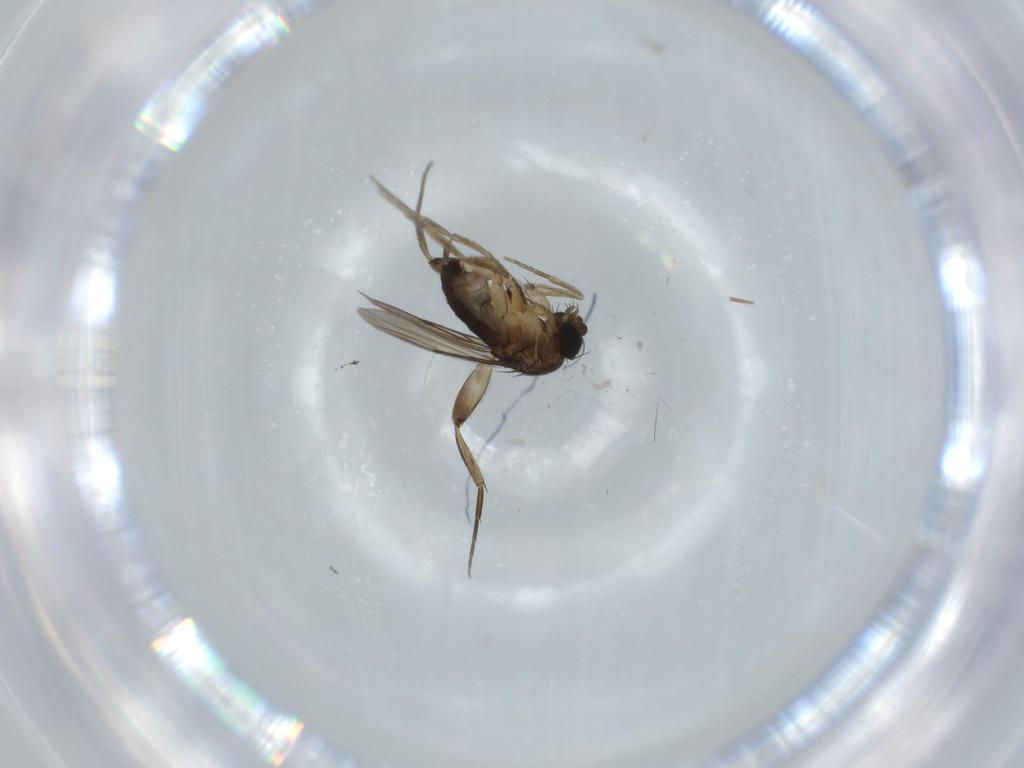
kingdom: Animalia
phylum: Arthropoda
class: Insecta
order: Diptera
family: Phoridae
